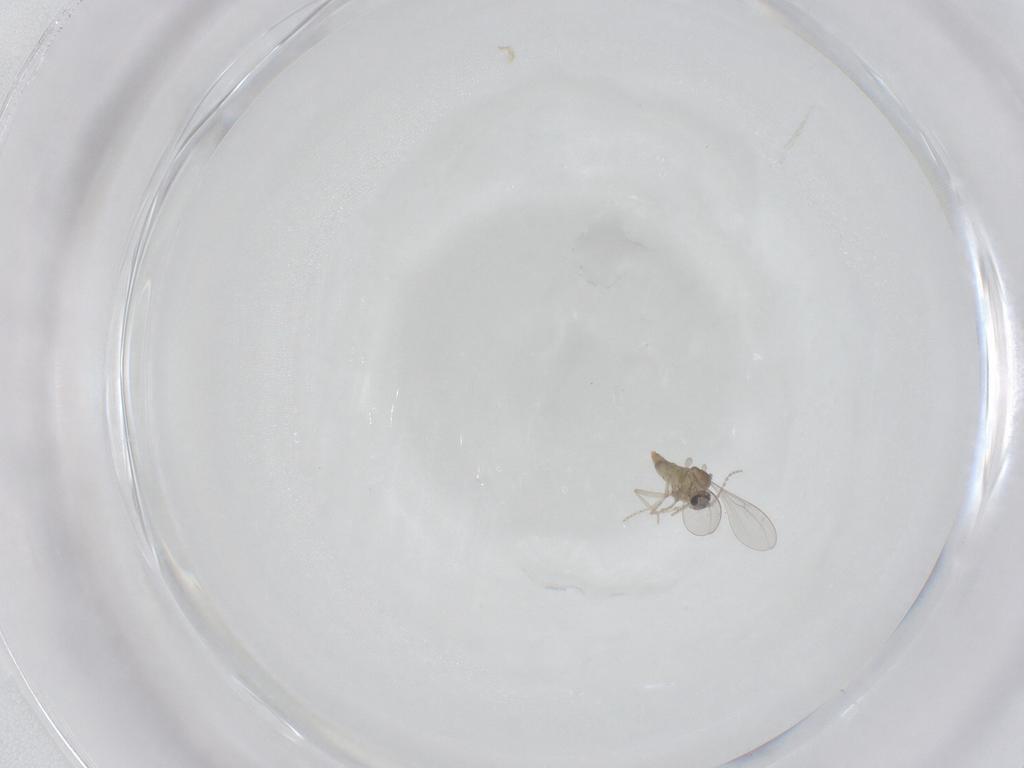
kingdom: Animalia
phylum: Arthropoda
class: Insecta
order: Diptera
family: Cecidomyiidae
